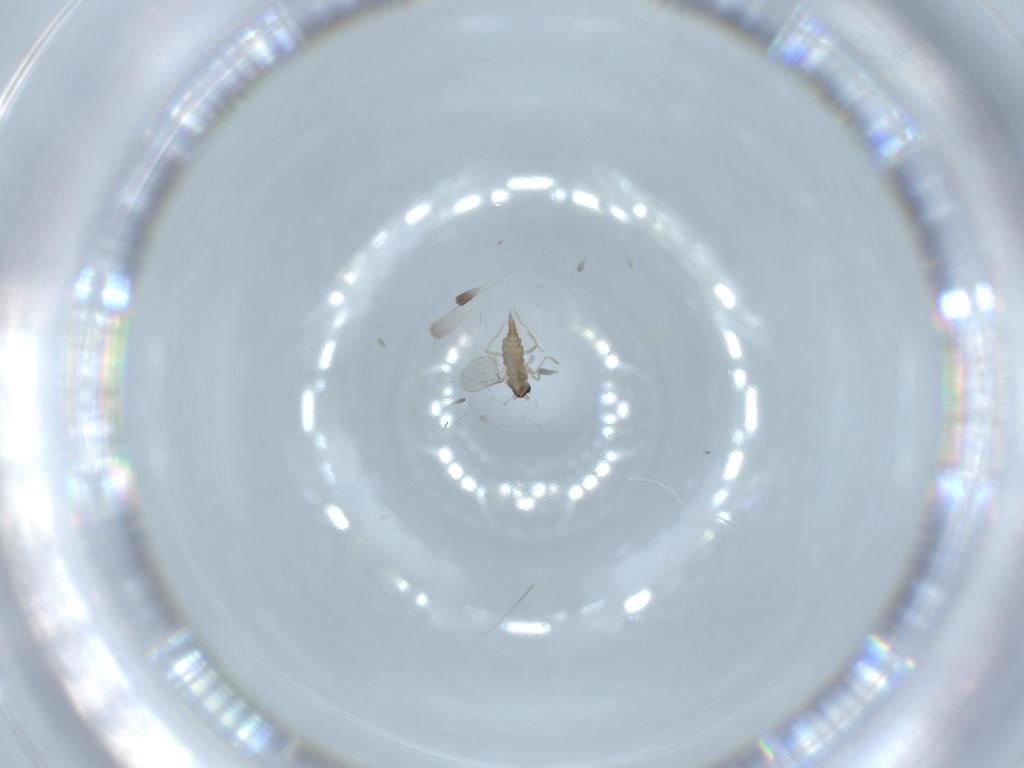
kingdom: Animalia
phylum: Arthropoda
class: Insecta
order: Diptera
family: Cecidomyiidae
